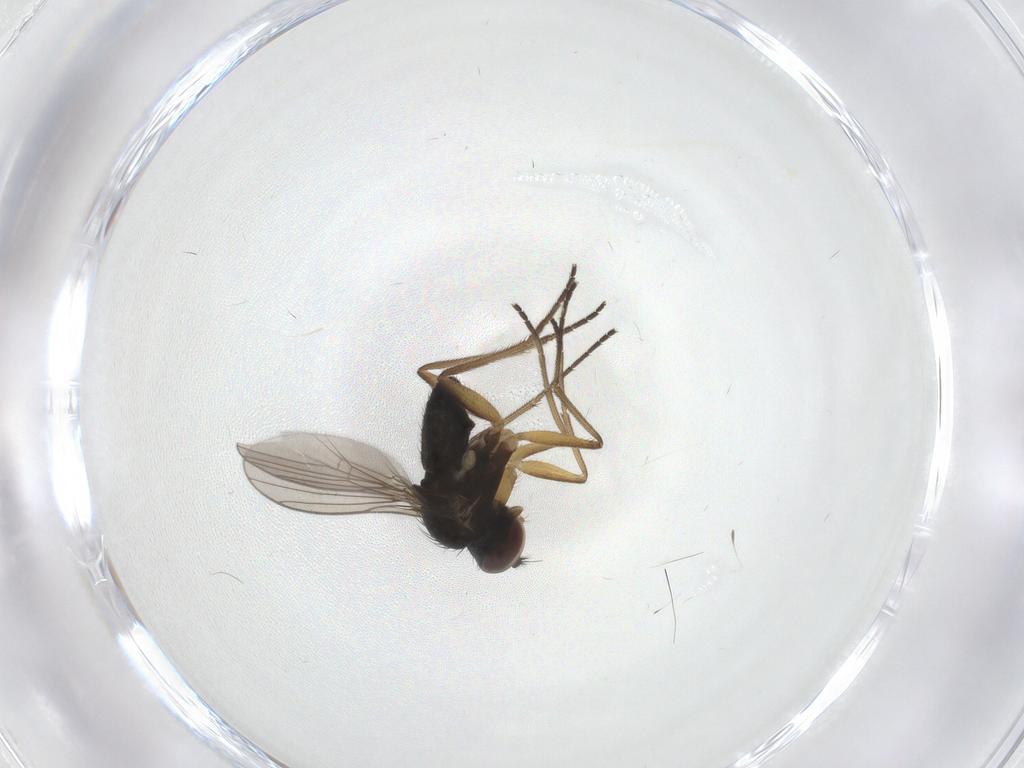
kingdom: Animalia
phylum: Arthropoda
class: Insecta
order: Diptera
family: Dolichopodidae
